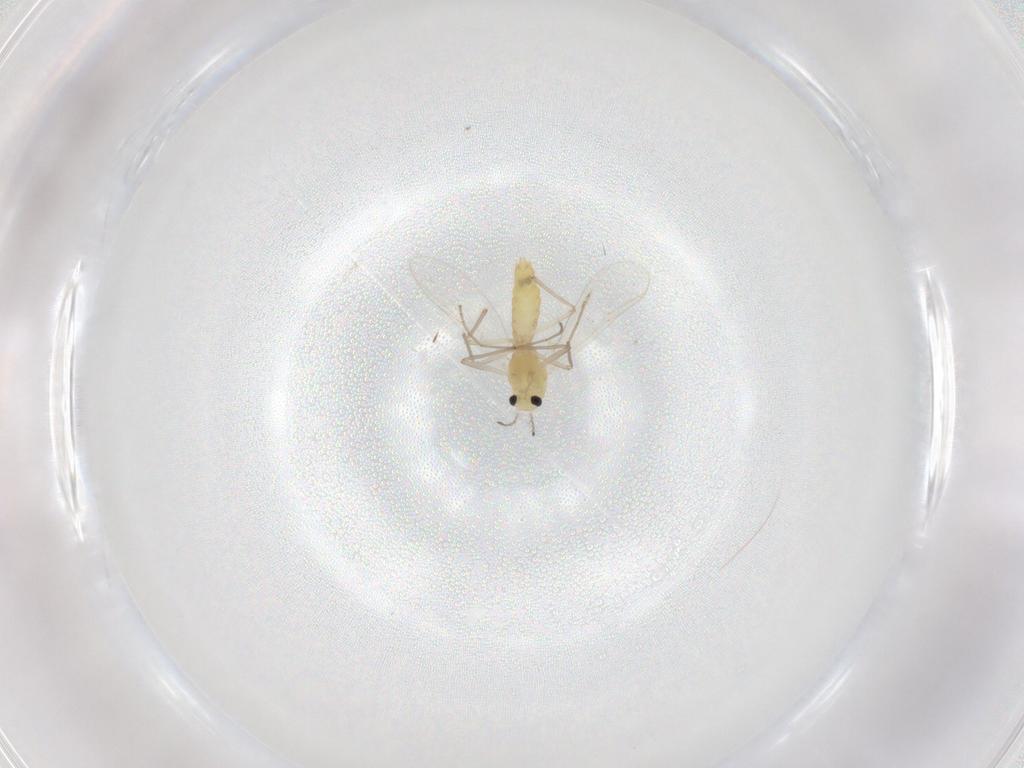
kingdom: Animalia
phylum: Arthropoda
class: Insecta
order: Diptera
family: Chironomidae
